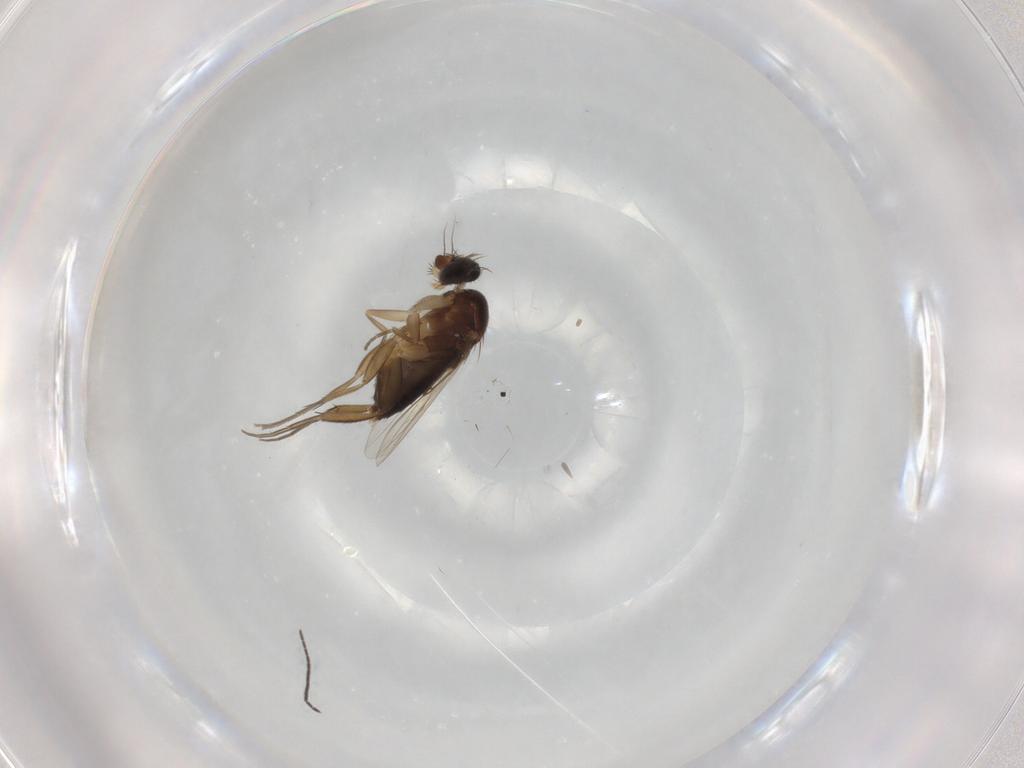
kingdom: Animalia
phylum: Arthropoda
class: Insecta
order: Diptera
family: Phoridae
